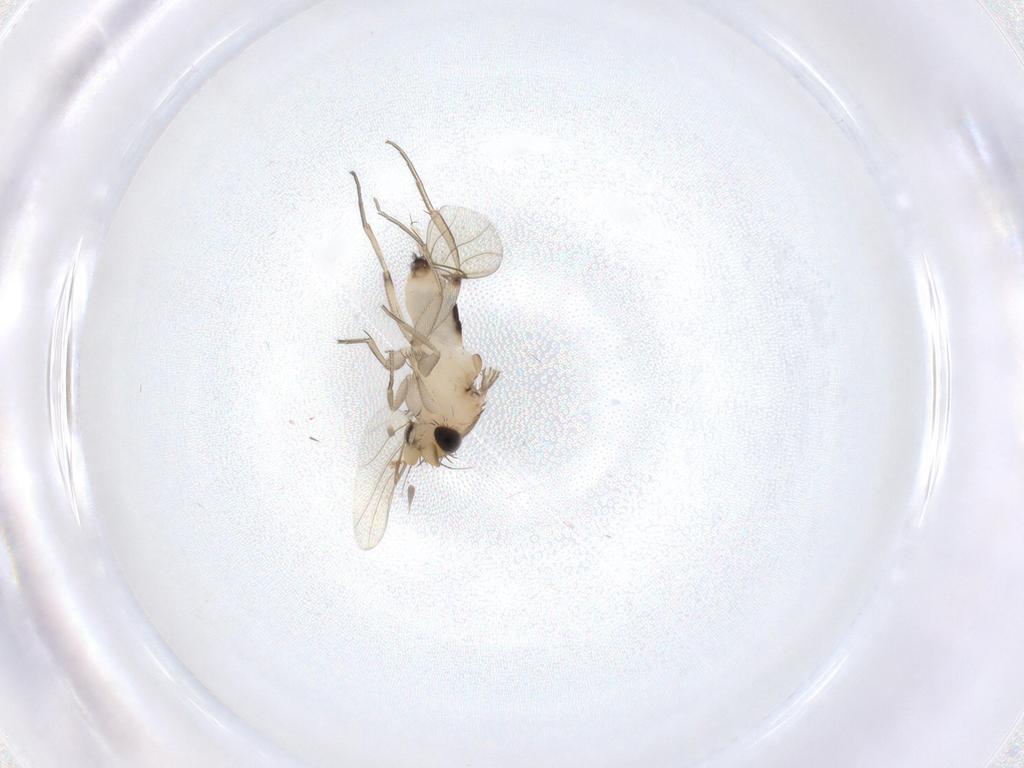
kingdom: Animalia
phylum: Arthropoda
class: Insecta
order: Diptera
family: Phoridae
